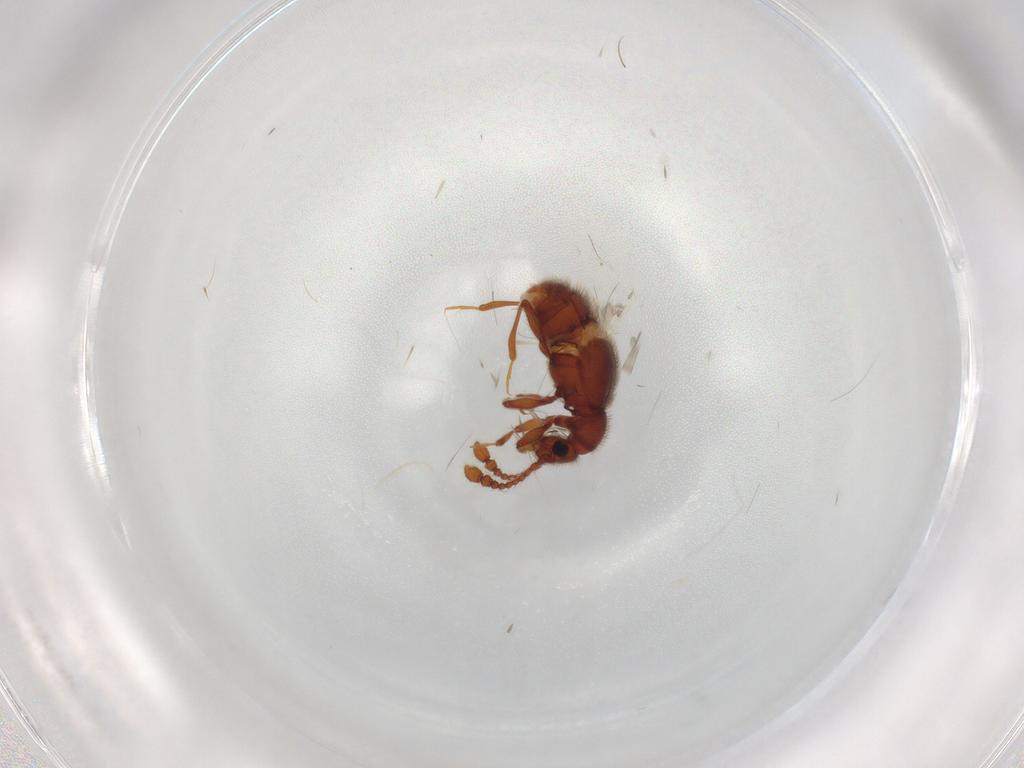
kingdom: Animalia
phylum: Arthropoda
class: Insecta
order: Coleoptera
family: Staphylinidae
